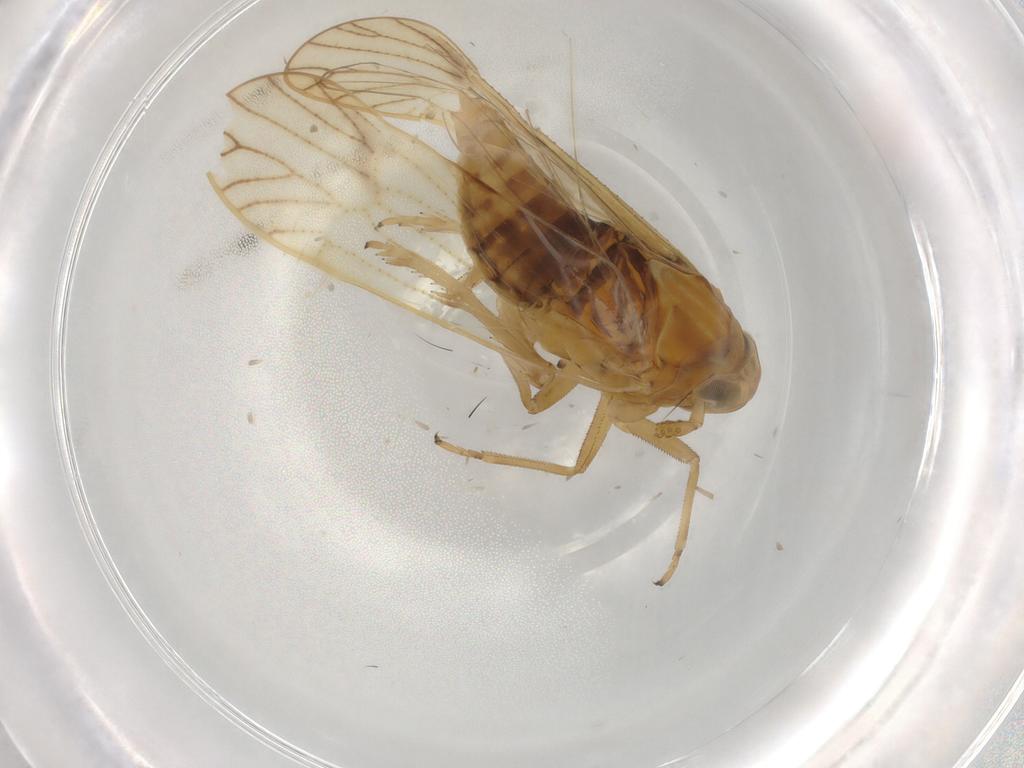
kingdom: Animalia
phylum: Arthropoda
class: Insecta
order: Hemiptera
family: Delphacidae
